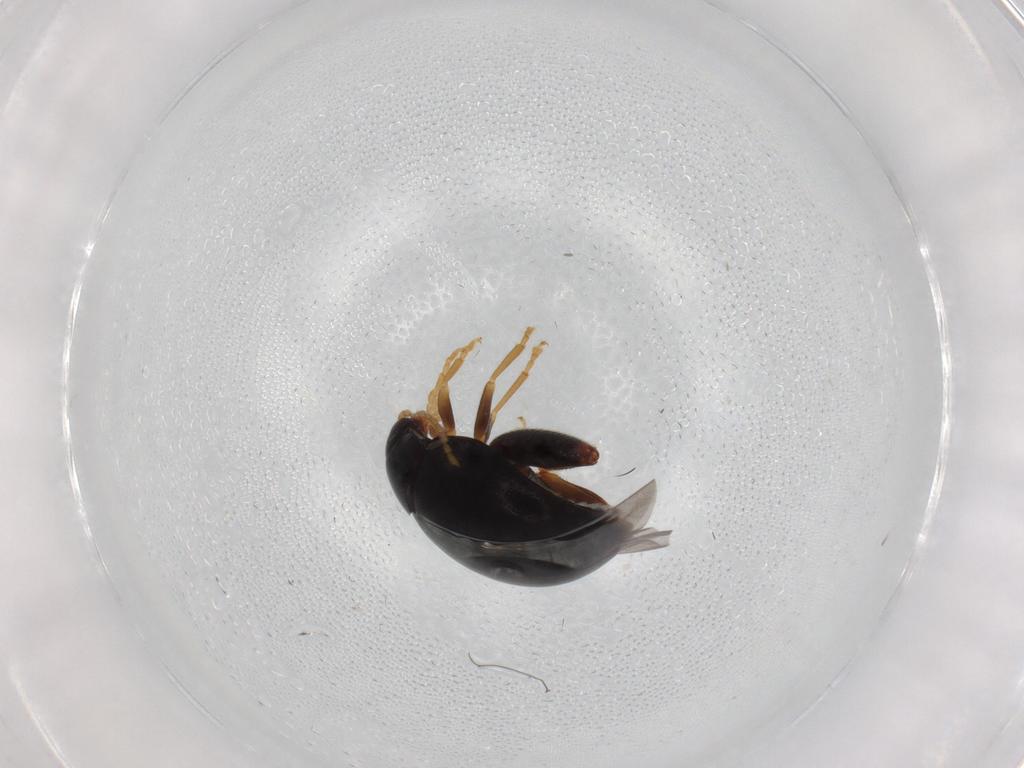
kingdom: Animalia
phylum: Arthropoda
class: Insecta
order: Coleoptera
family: Chrysomelidae
